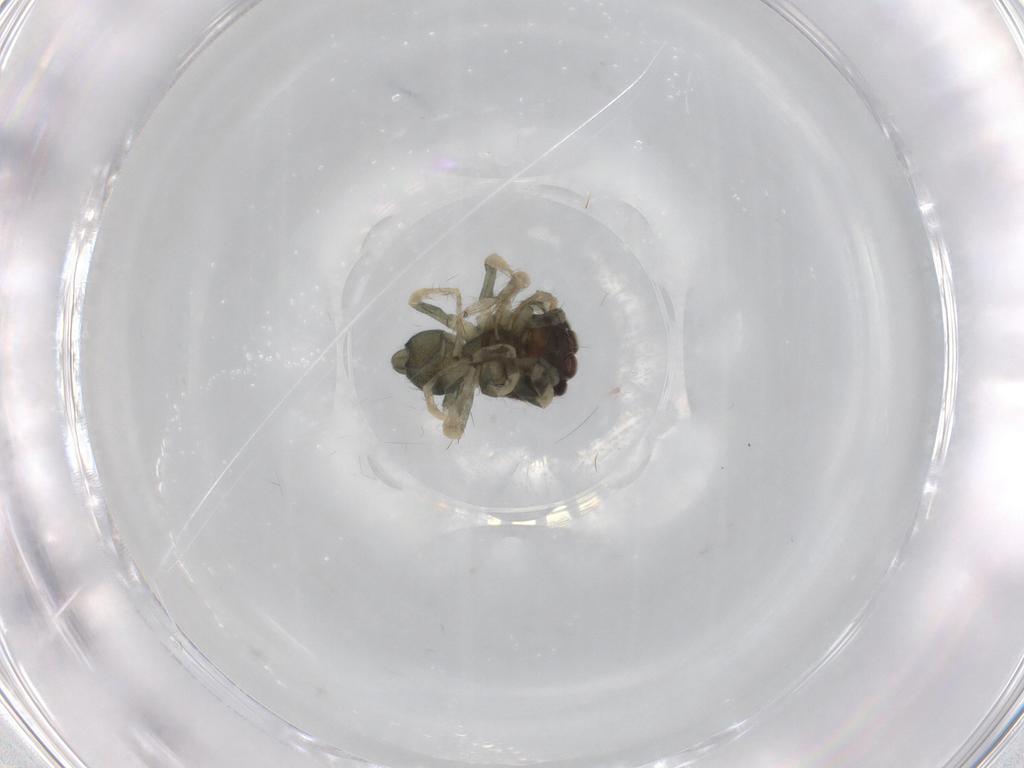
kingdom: Animalia
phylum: Arthropoda
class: Arachnida
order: Araneae
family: Salticidae
